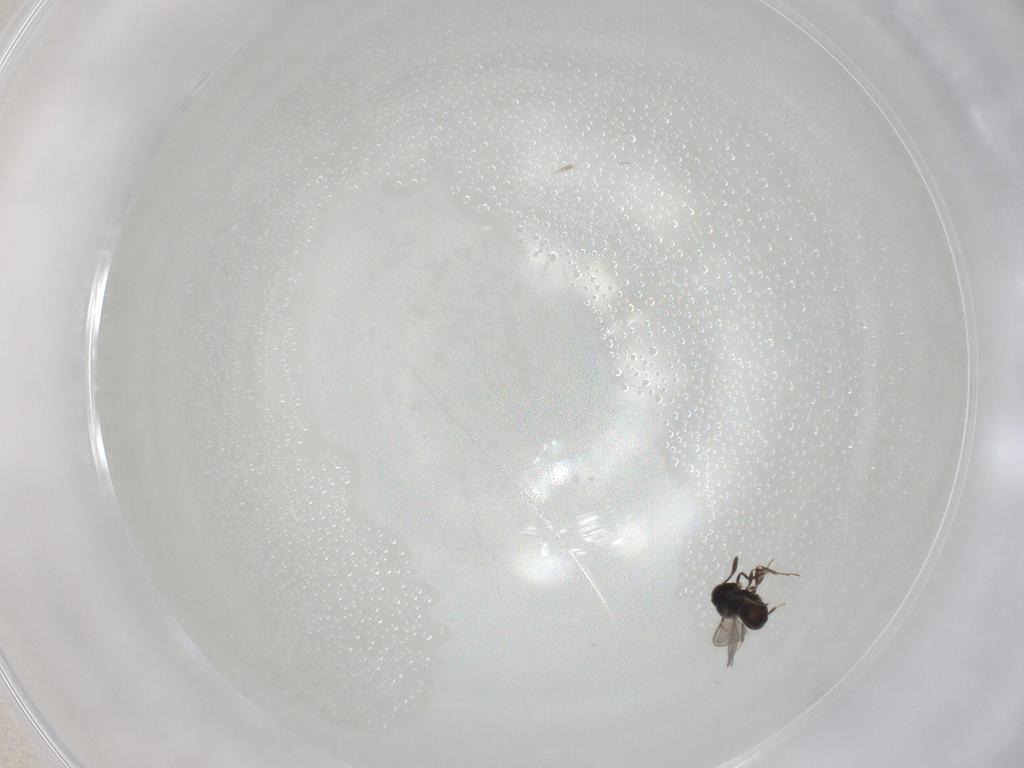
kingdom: Animalia
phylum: Arthropoda
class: Insecta
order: Hymenoptera
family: Scelionidae
